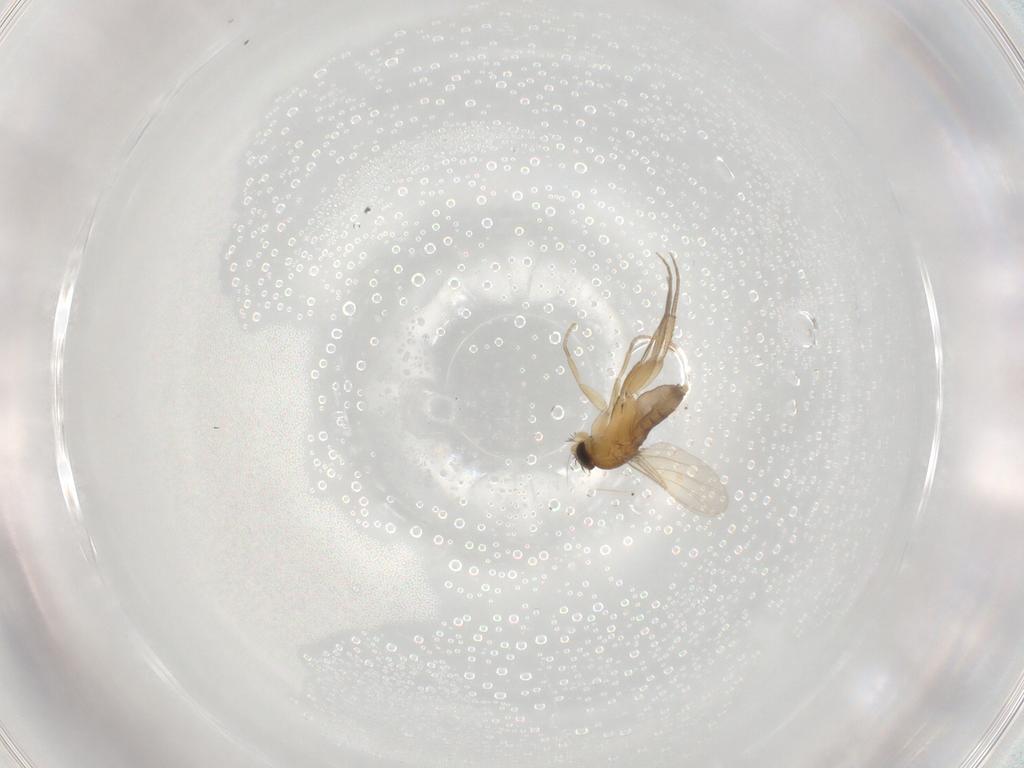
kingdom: Animalia
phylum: Arthropoda
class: Insecta
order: Diptera
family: Phoridae
